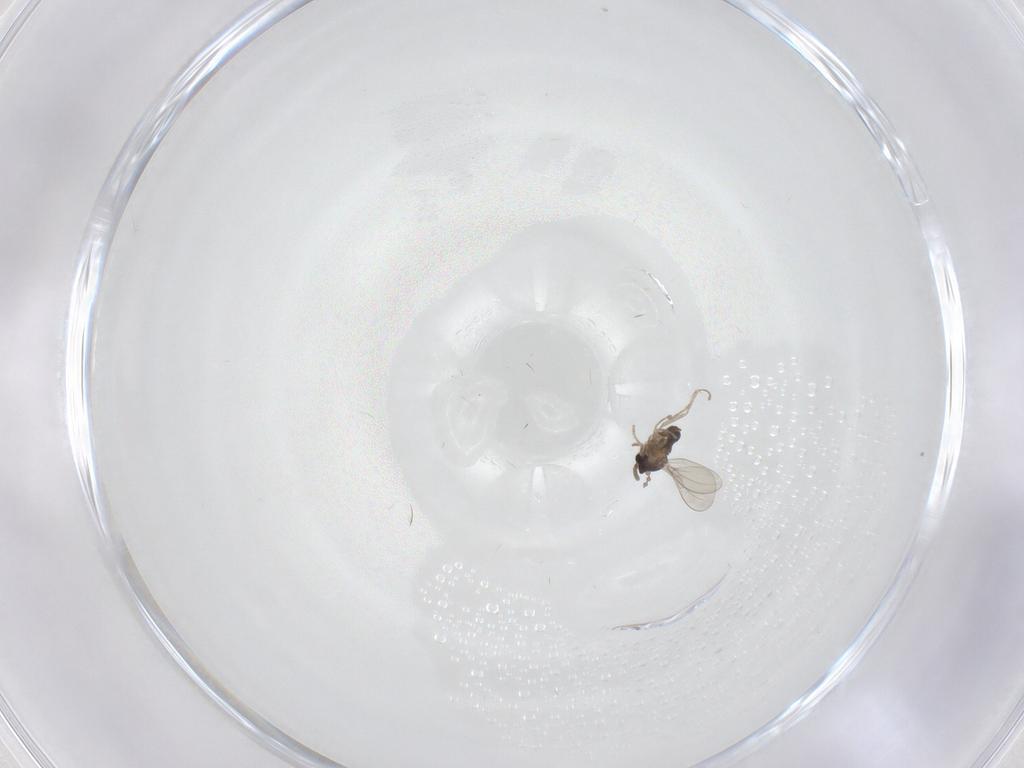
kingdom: Animalia
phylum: Arthropoda
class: Insecta
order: Diptera
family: Cecidomyiidae
